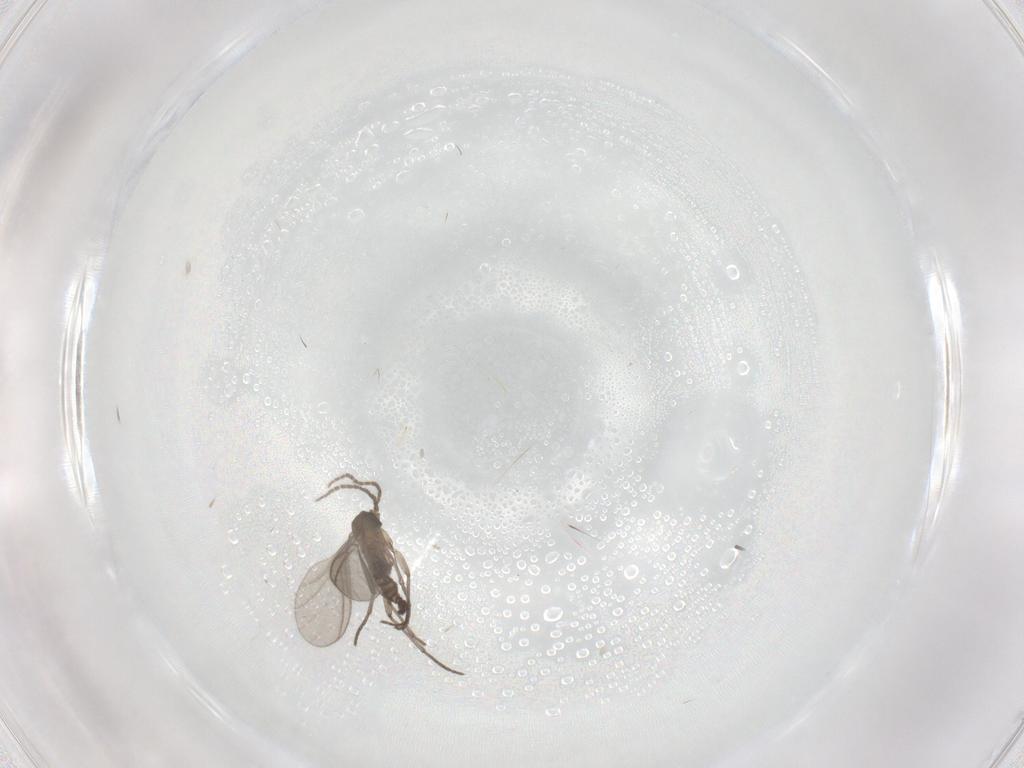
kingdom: Animalia
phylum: Arthropoda
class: Insecta
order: Diptera
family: Sciaridae
